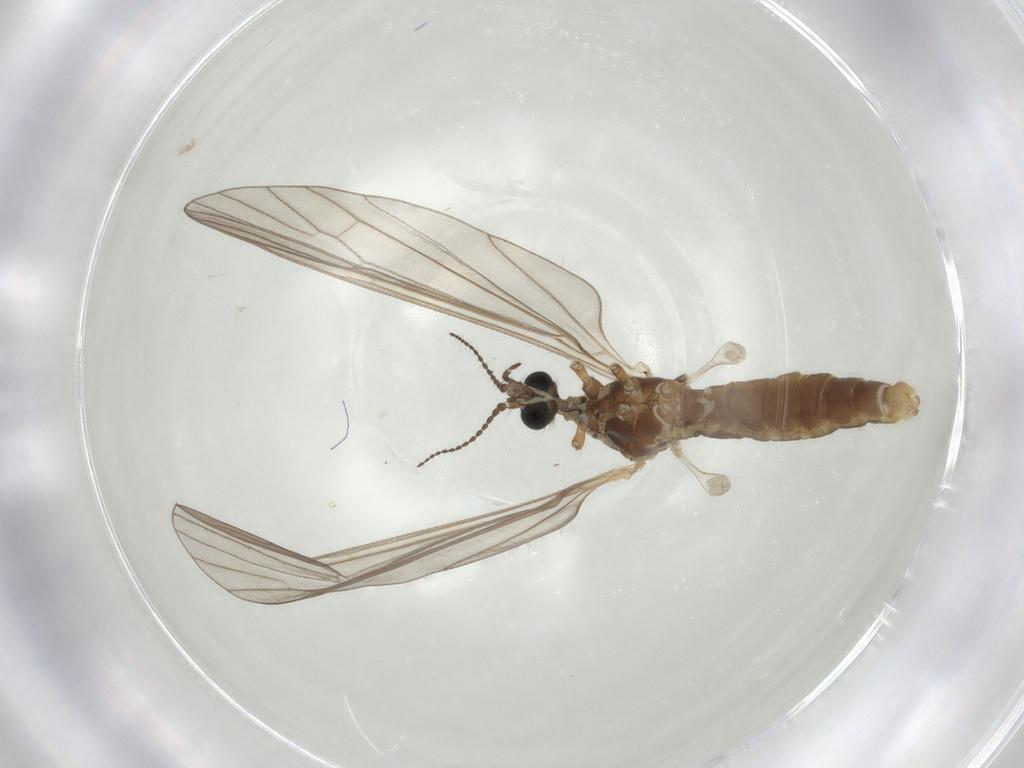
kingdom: Animalia
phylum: Arthropoda
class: Insecta
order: Diptera
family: Limoniidae
